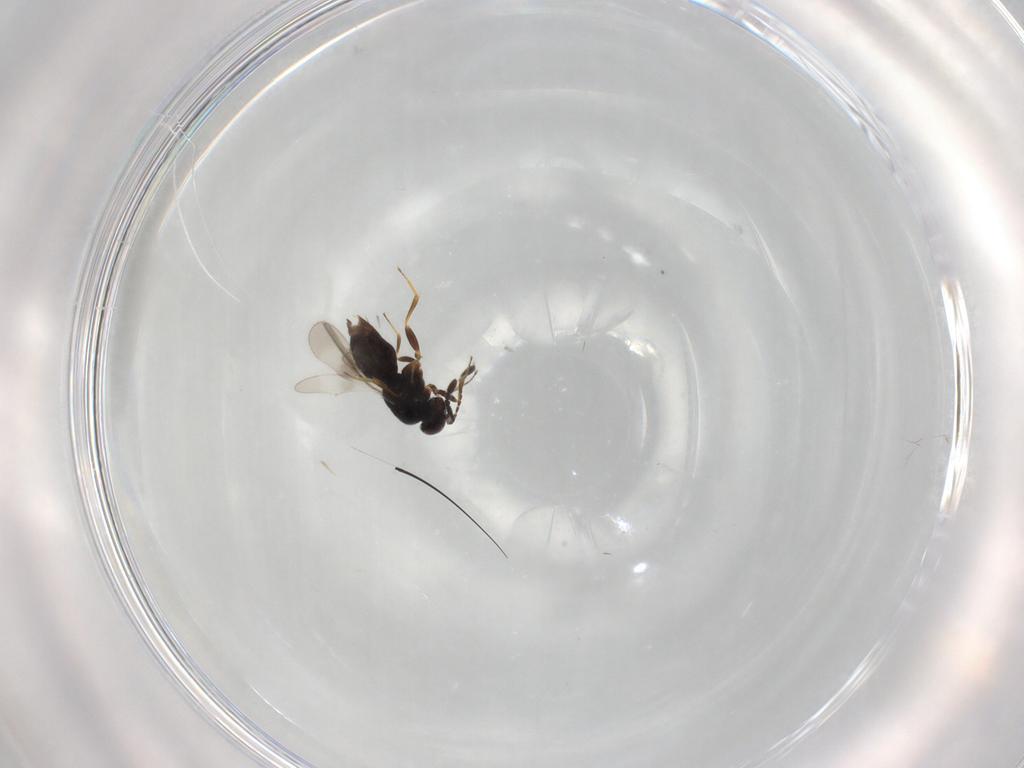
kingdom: Animalia
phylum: Arthropoda
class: Insecta
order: Hymenoptera
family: Ceraphronidae
